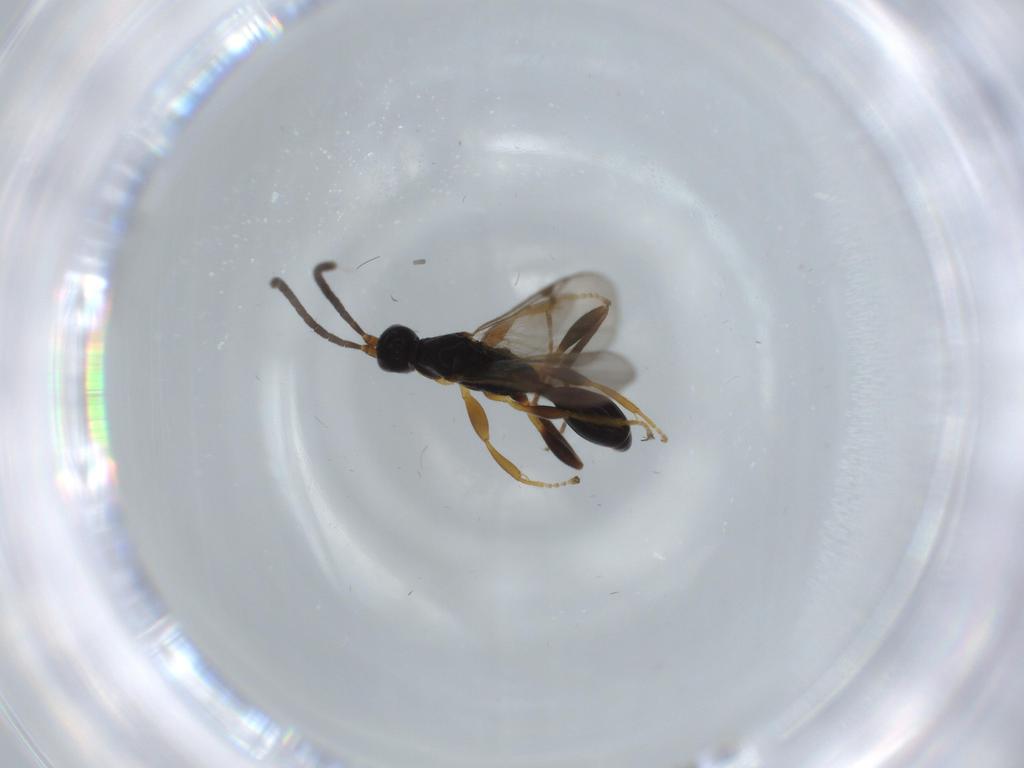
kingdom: Animalia
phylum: Arthropoda
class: Insecta
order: Hymenoptera
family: Proctotrupidae
